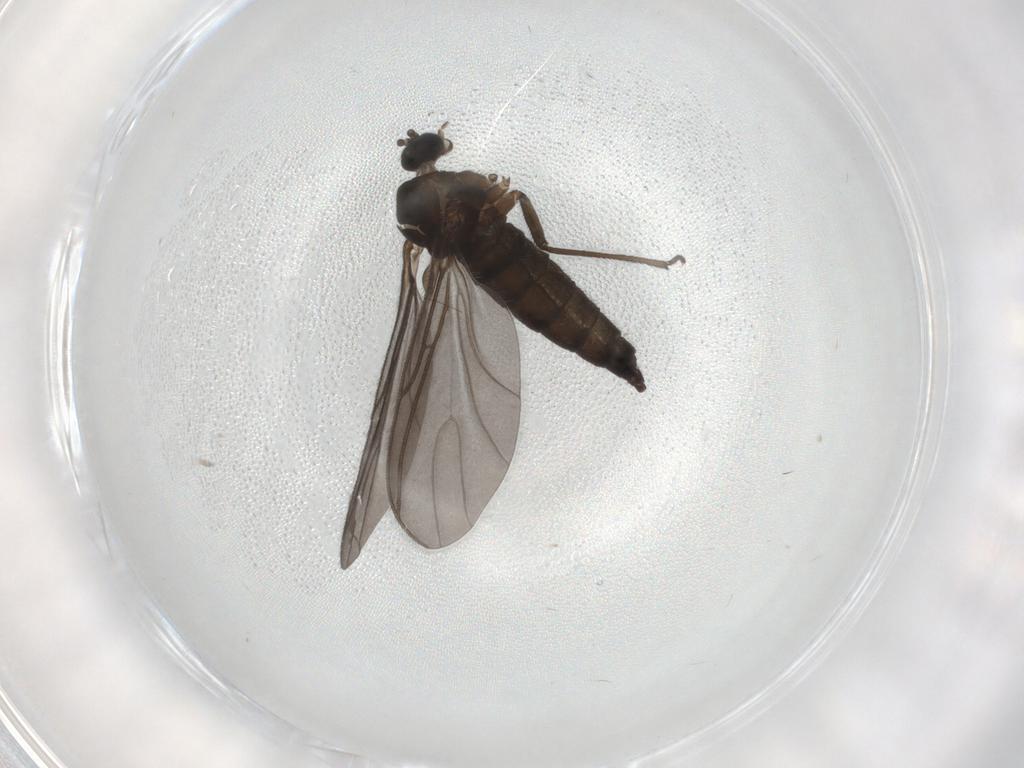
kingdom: Animalia
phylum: Arthropoda
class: Insecta
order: Diptera
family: Sciaridae
